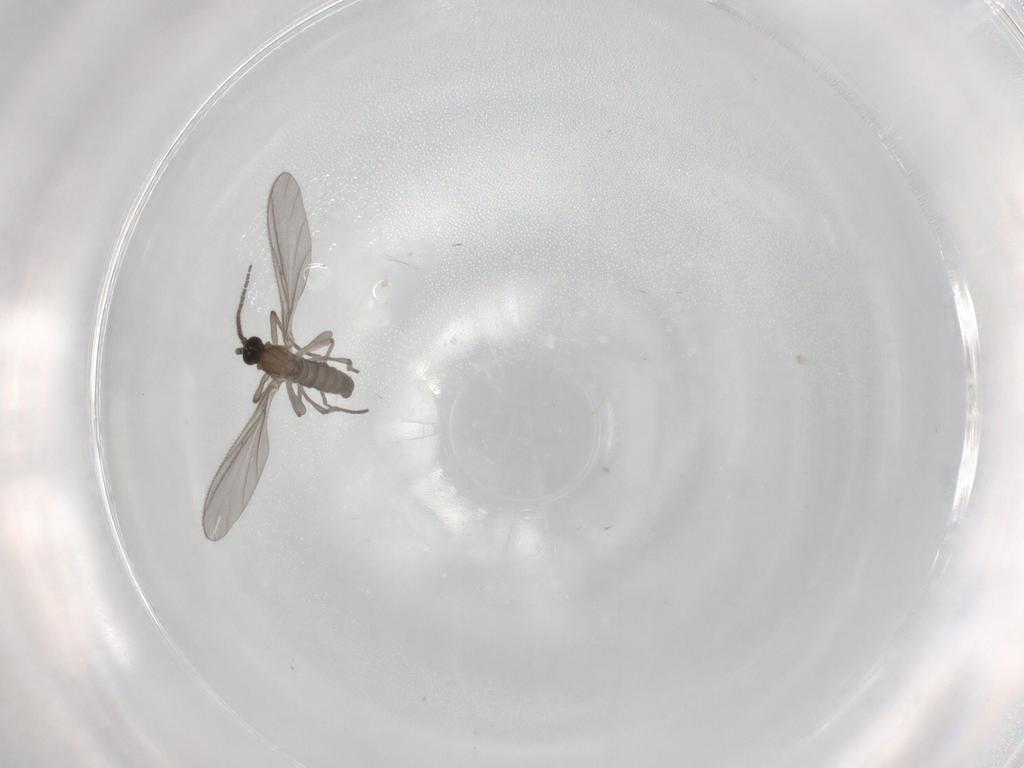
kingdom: Animalia
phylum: Arthropoda
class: Insecta
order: Diptera
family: Sciaridae
